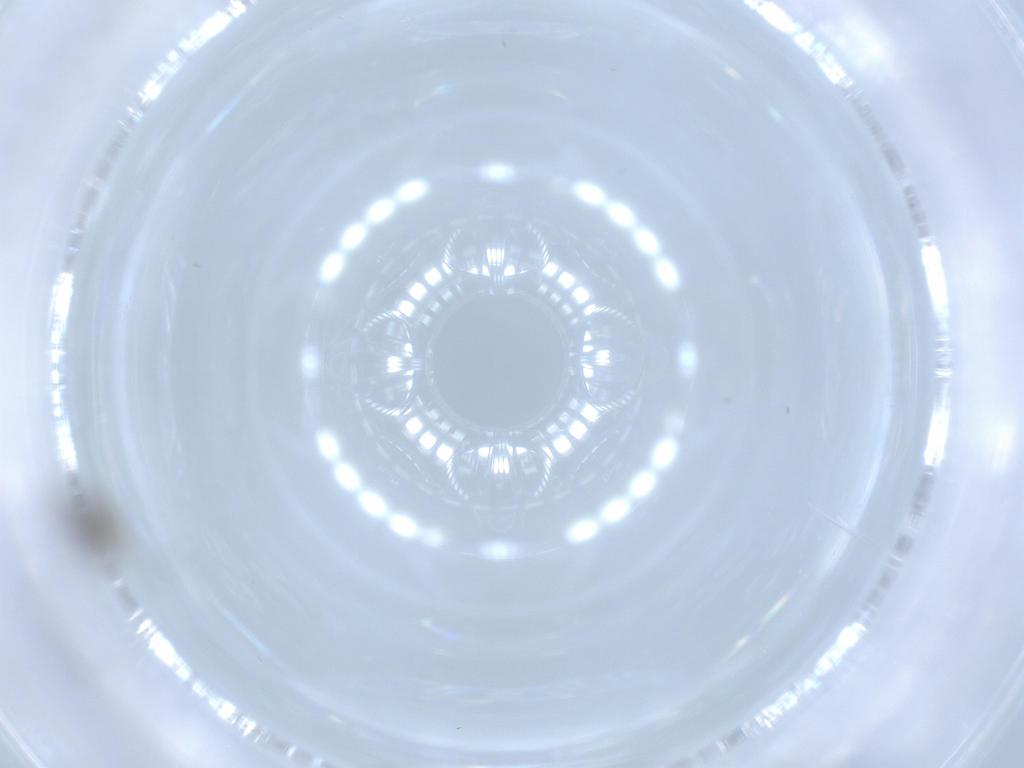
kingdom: Animalia
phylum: Arthropoda
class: Insecta
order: Diptera
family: Cecidomyiidae
